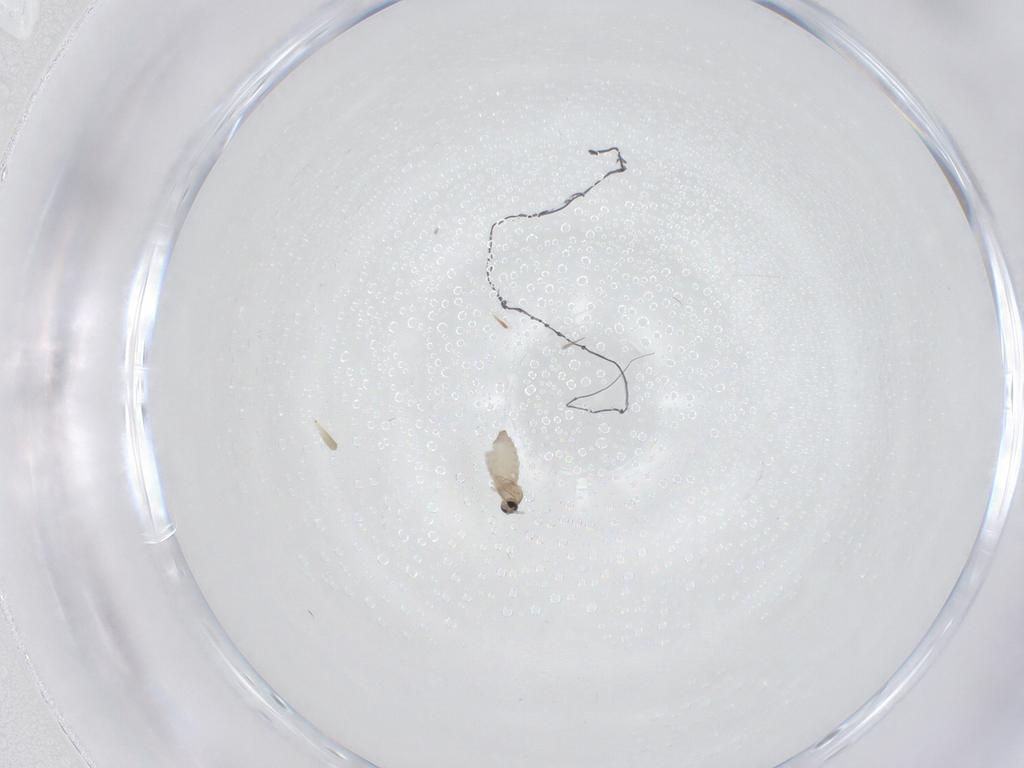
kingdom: Animalia
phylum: Arthropoda
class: Insecta
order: Diptera
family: Cecidomyiidae
